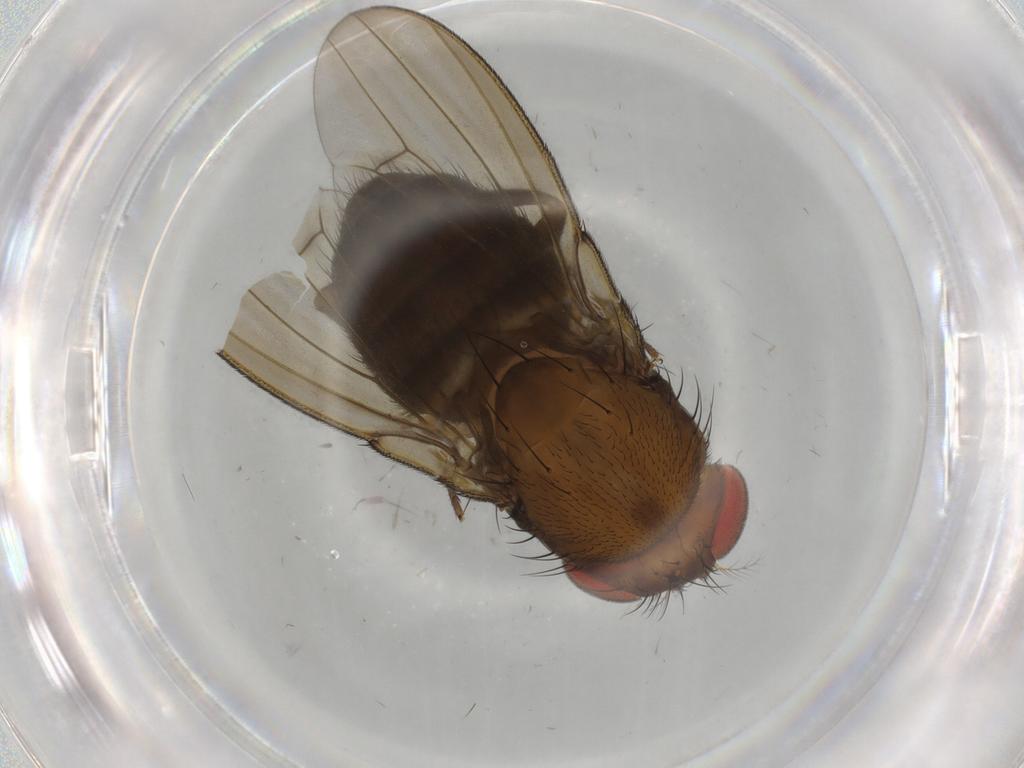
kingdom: Animalia
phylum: Arthropoda
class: Insecta
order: Diptera
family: Drosophilidae
